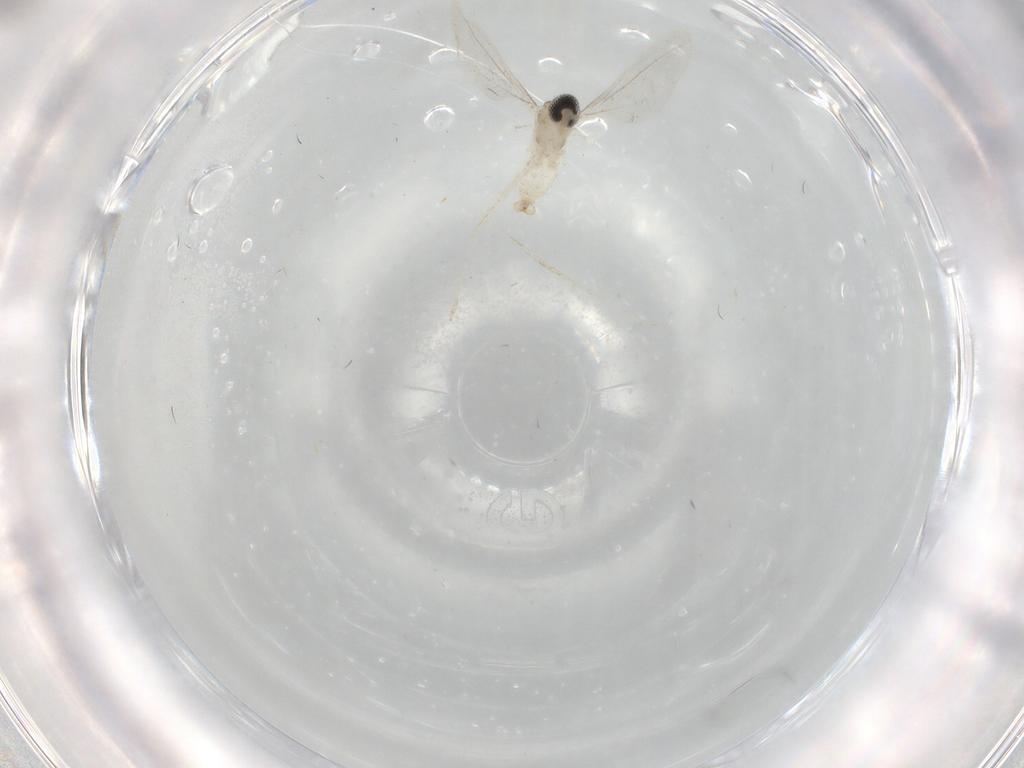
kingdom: Animalia
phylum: Arthropoda
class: Insecta
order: Diptera
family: Cecidomyiidae
